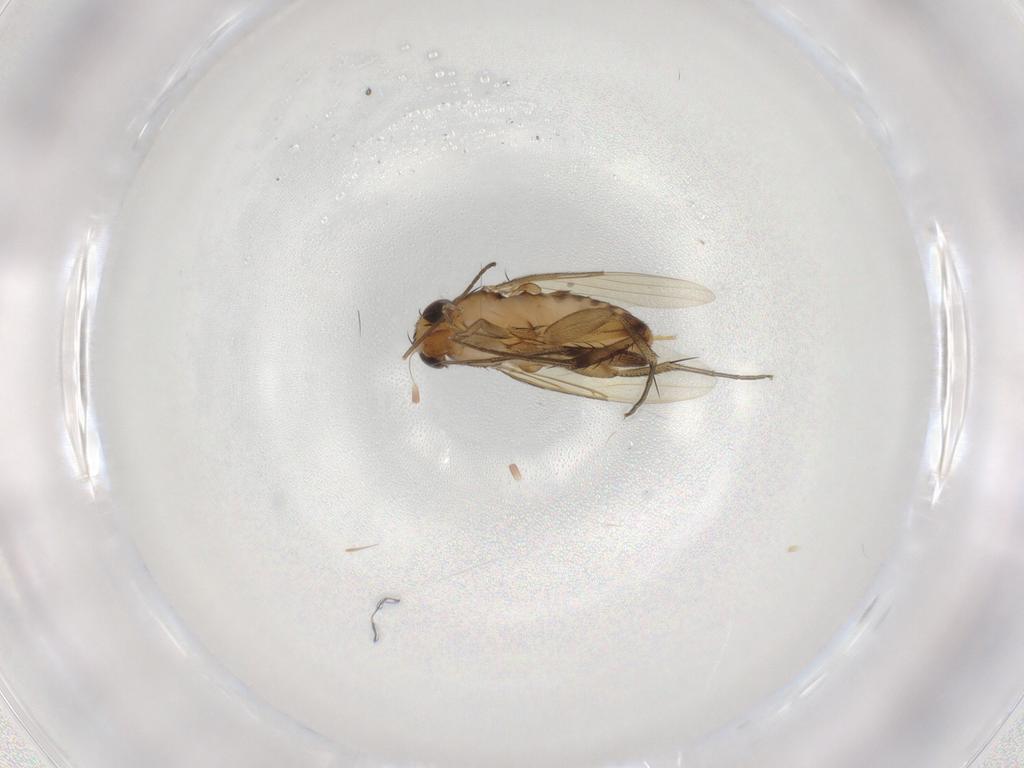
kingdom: Animalia
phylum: Arthropoda
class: Insecta
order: Diptera
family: Phoridae
